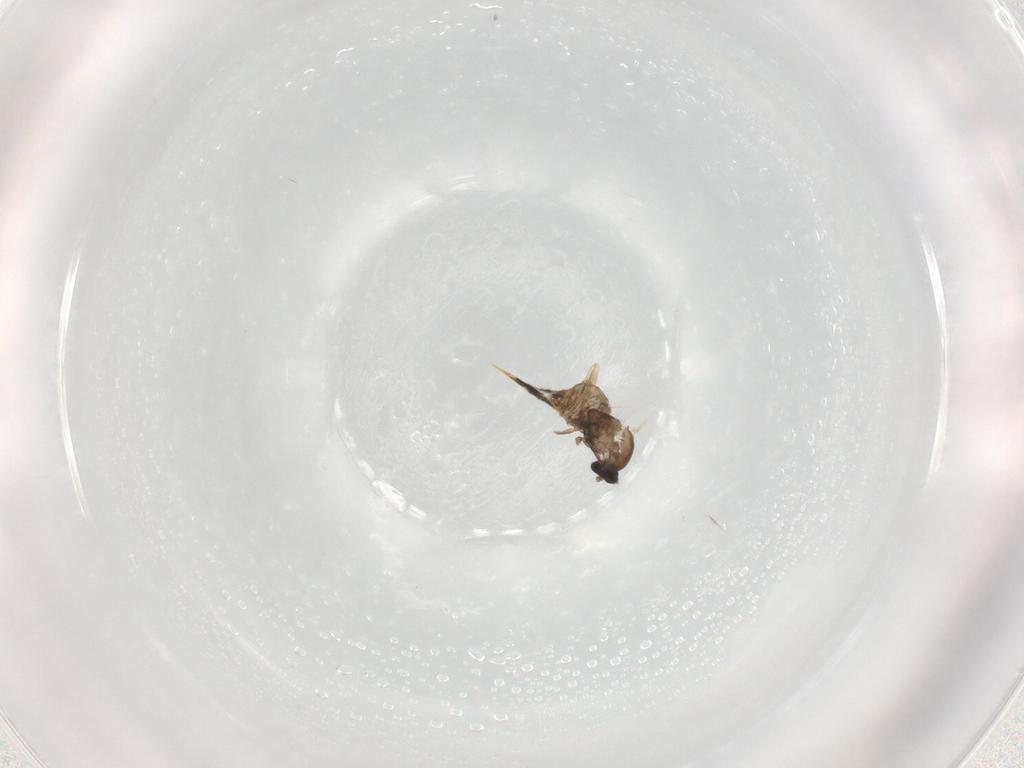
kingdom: Animalia
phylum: Arthropoda
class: Insecta
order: Diptera
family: Cecidomyiidae
